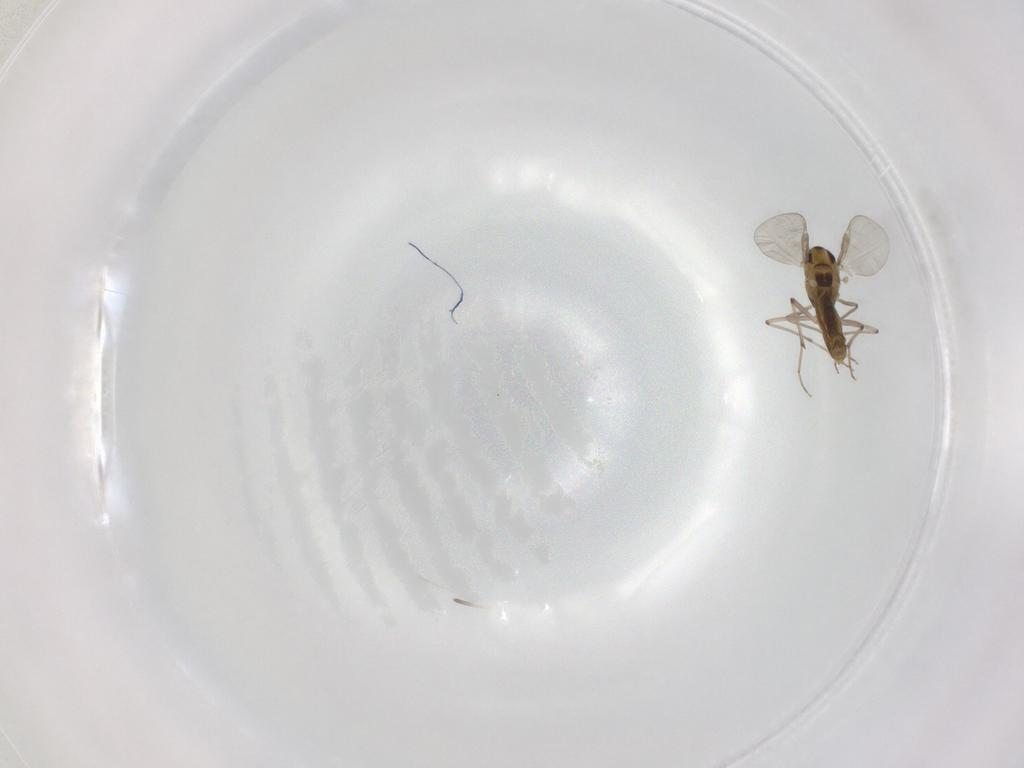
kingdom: Animalia
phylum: Arthropoda
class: Insecta
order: Diptera
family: Chironomidae
